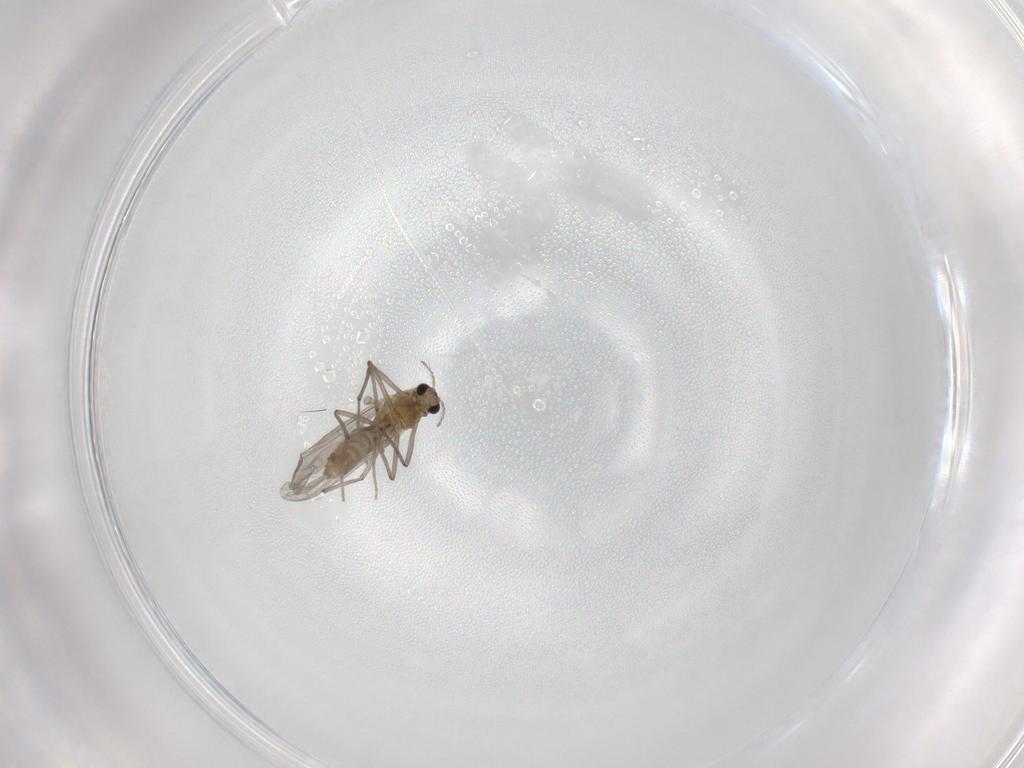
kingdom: Animalia
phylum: Arthropoda
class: Insecta
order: Diptera
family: Chironomidae
